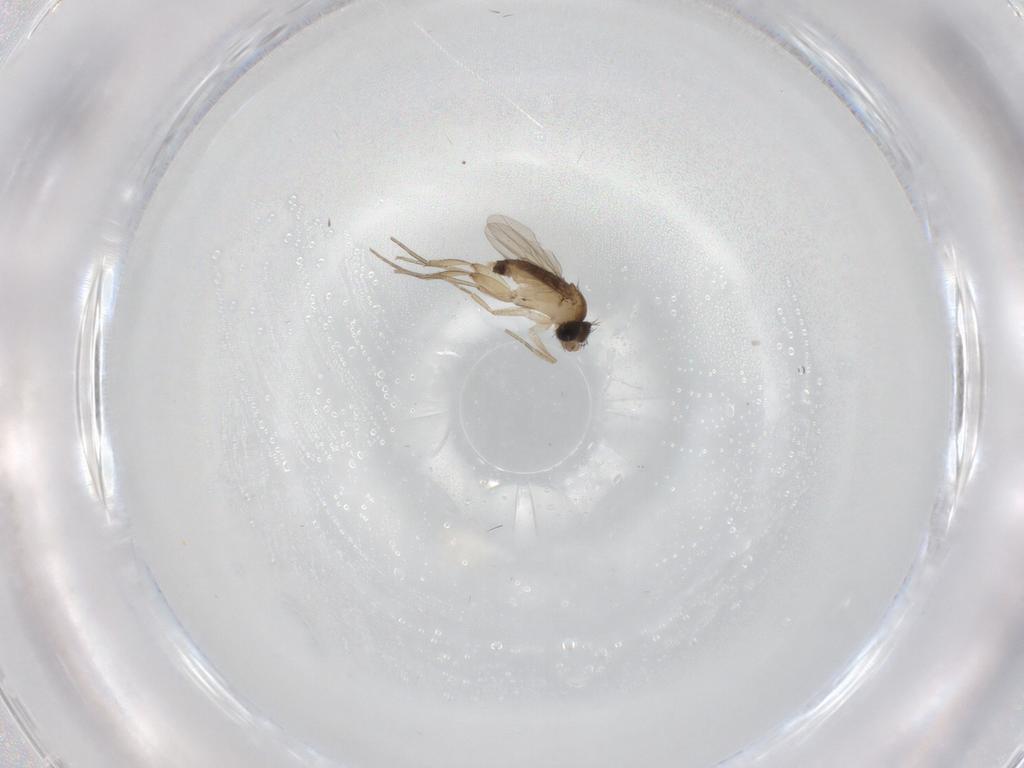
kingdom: Animalia
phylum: Arthropoda
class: Insecta
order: Diptera
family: Phoridae
